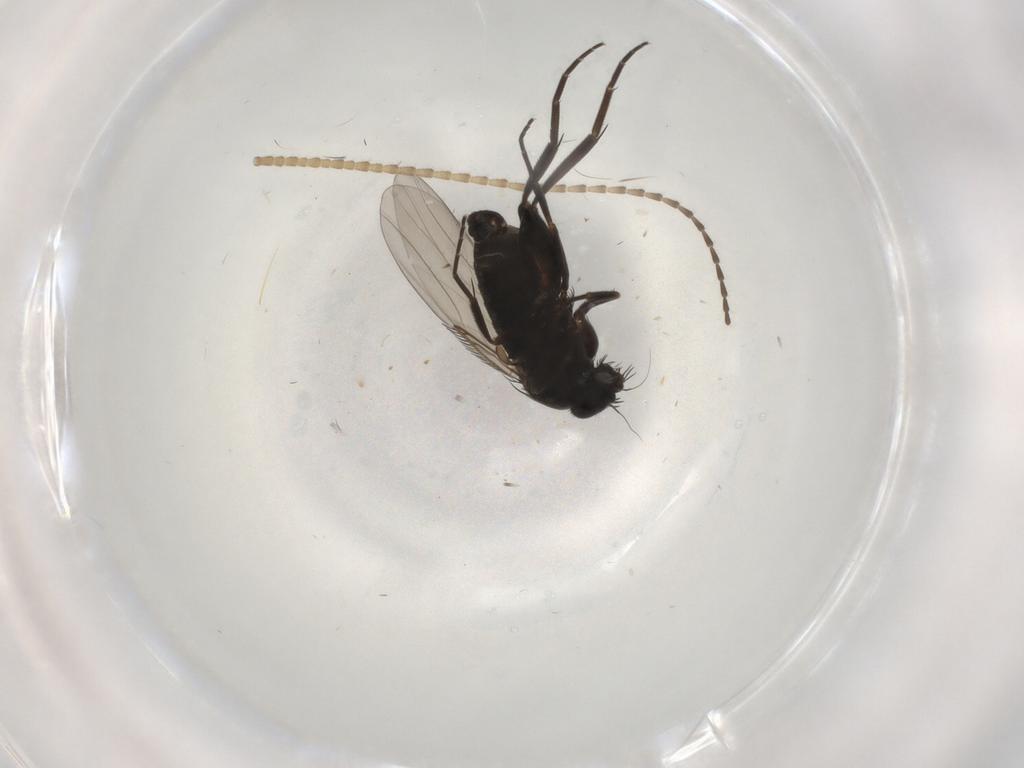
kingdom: Animalia
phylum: Arthropoda
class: Insecta
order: Diptera
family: Phoridae
